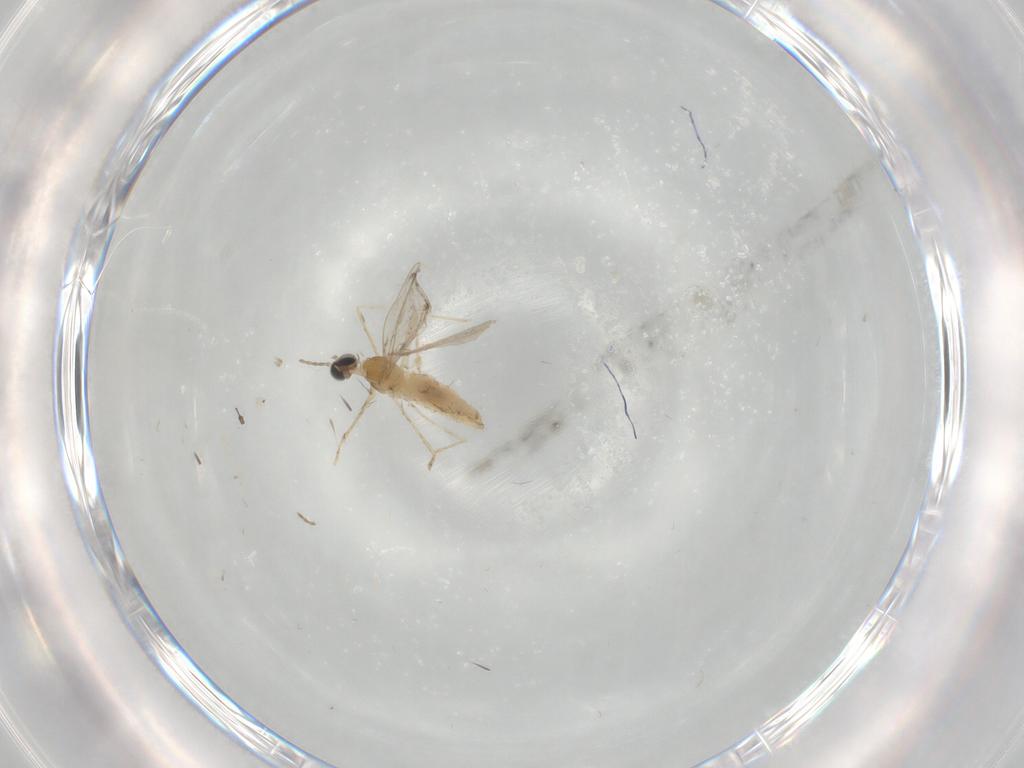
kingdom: Animalia
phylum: Arthropoda
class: Insecta
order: Diptera
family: Cecidomyiidae
